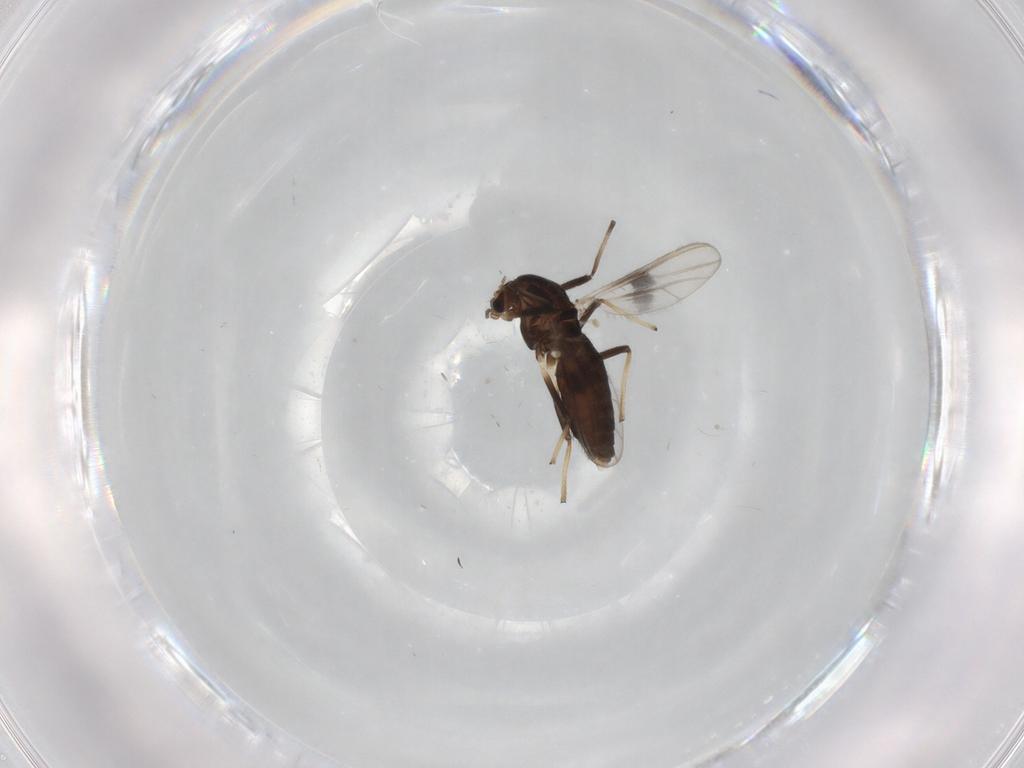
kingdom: Animalia
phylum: Arthropoda
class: Insecta
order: Diptera
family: Chironomidae
